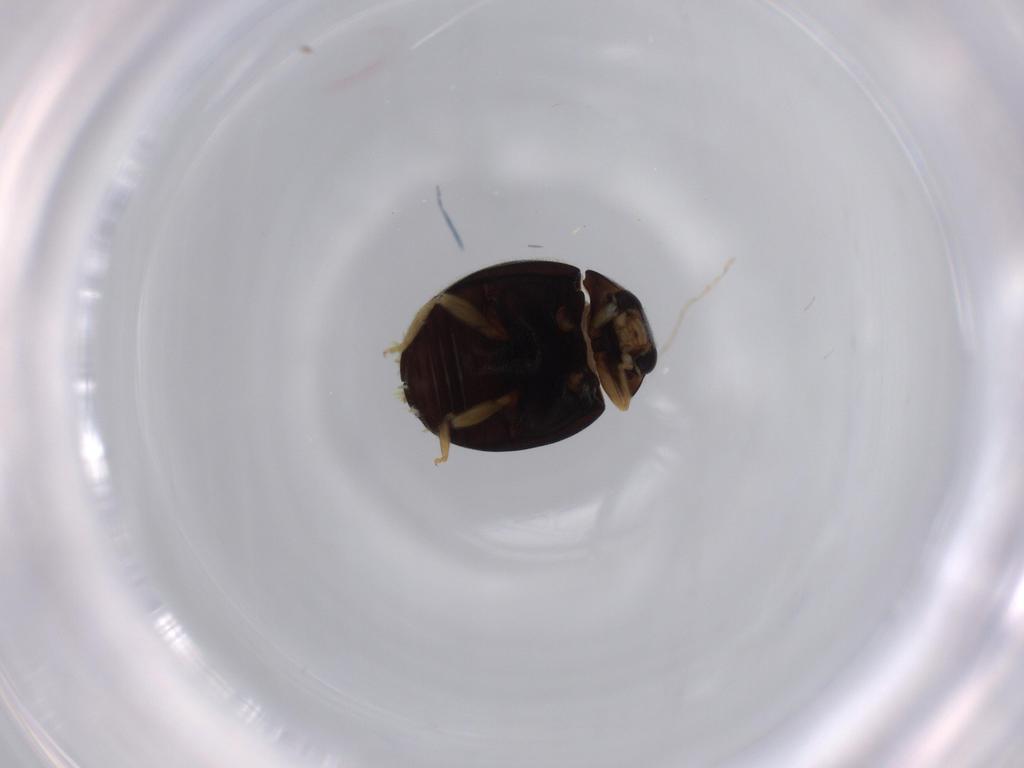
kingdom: Animalia
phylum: Arthropoda
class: Insecta
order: Coleoptera
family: Coccinellidae
